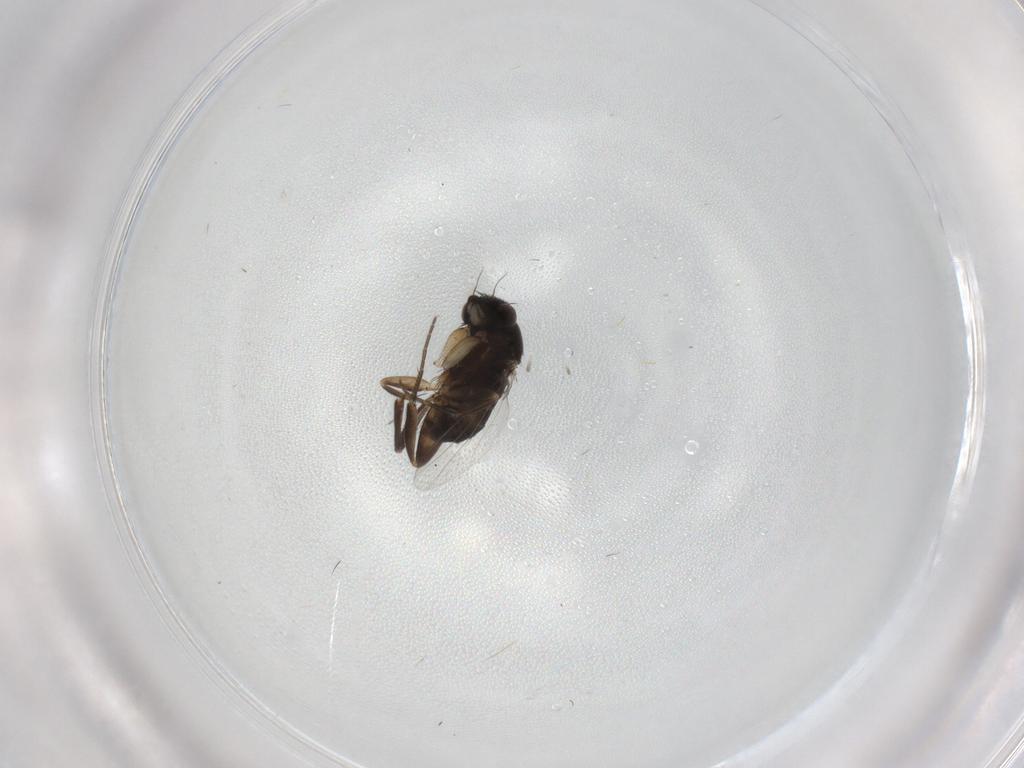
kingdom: Animalia
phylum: Arthropoda
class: Insecta
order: Diptera
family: Phoridae
